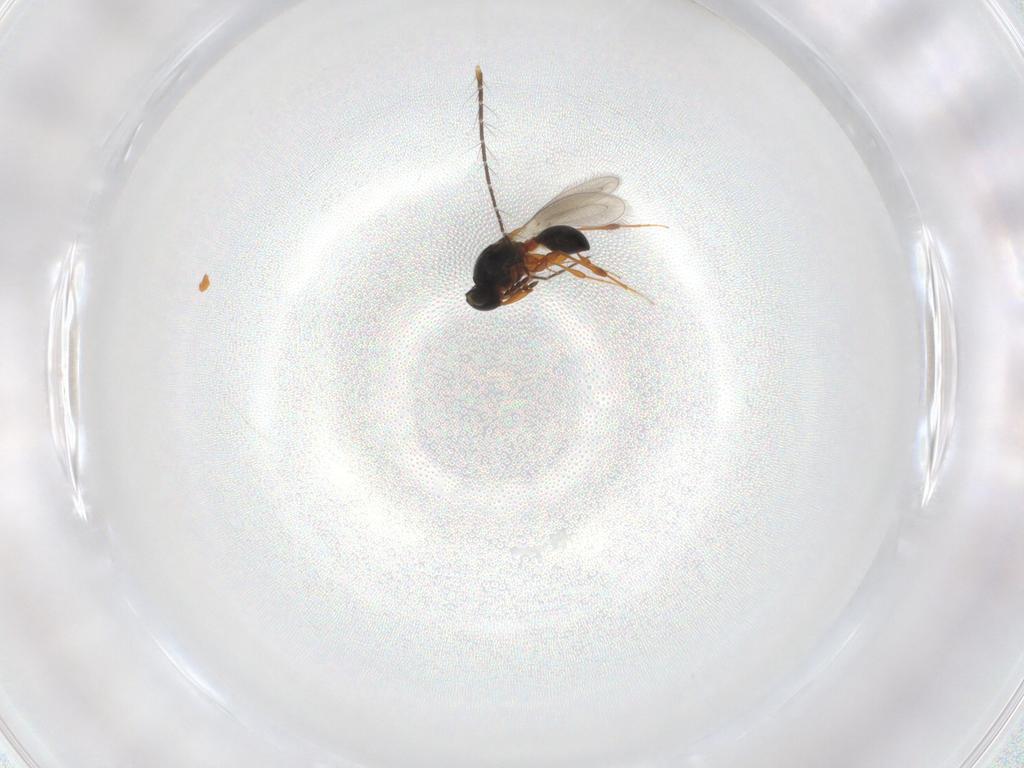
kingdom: Animalia
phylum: Arthropoda
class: Insecta
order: Hymenoptera
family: Platygastridae
